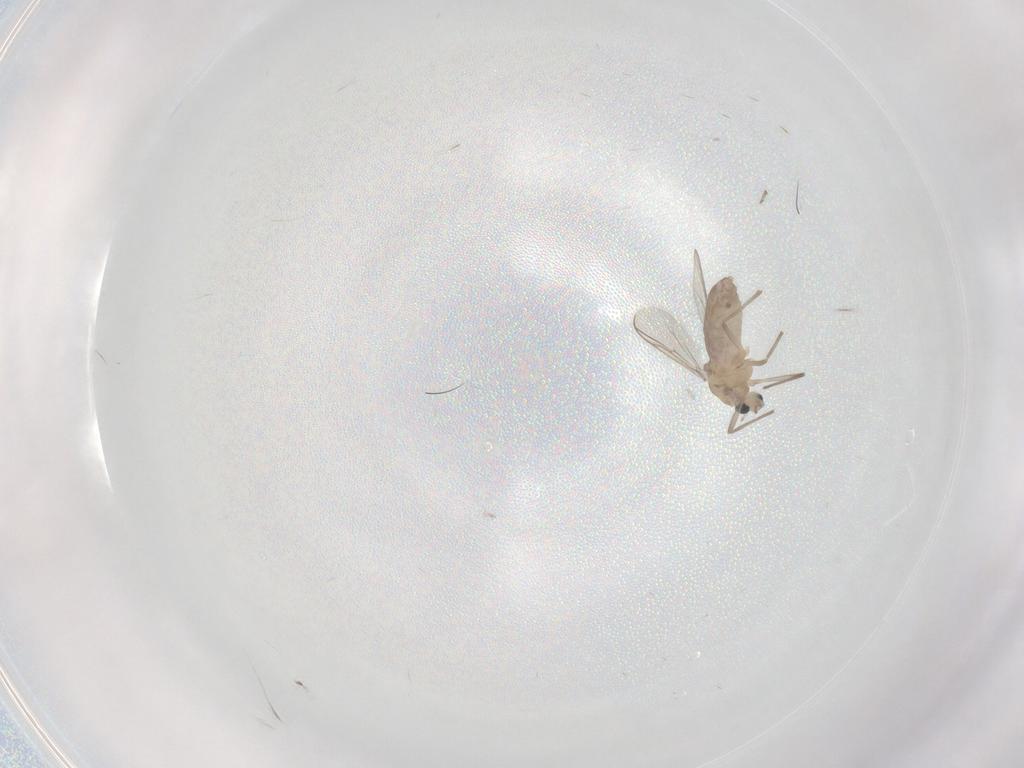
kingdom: Animalia
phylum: Arthropoda
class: Insecta
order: Diptera
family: Chironomidae
